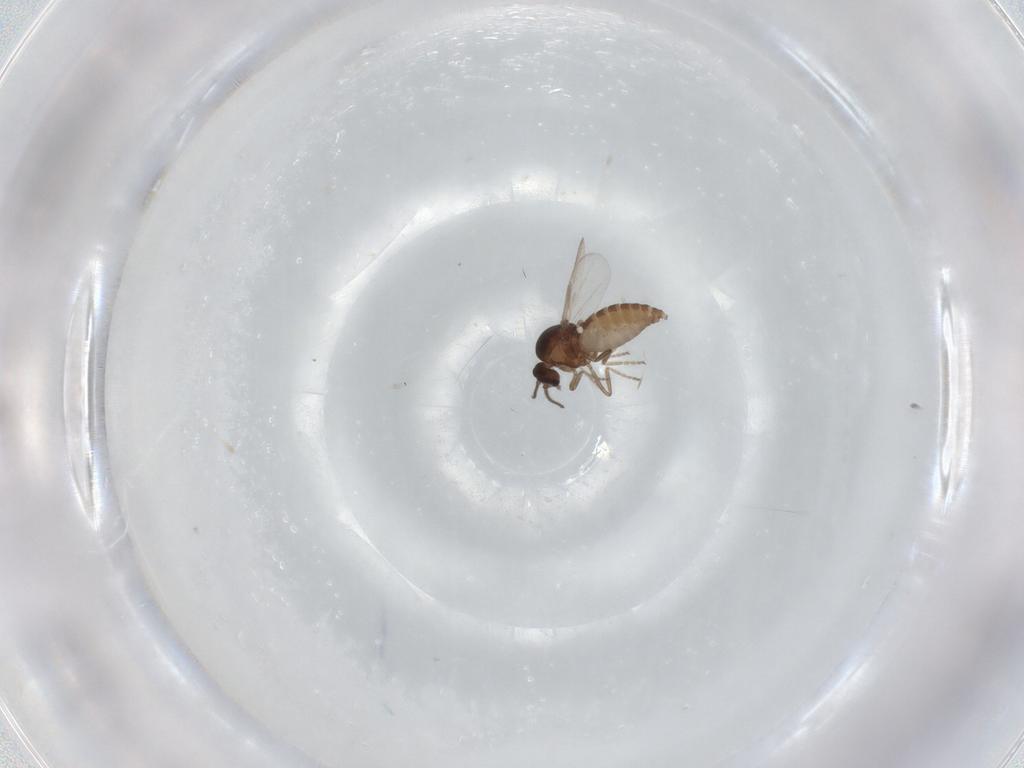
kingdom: Animalia
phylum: Arthropoda
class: Insecta
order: Diptera
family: Ceratopogonidae
